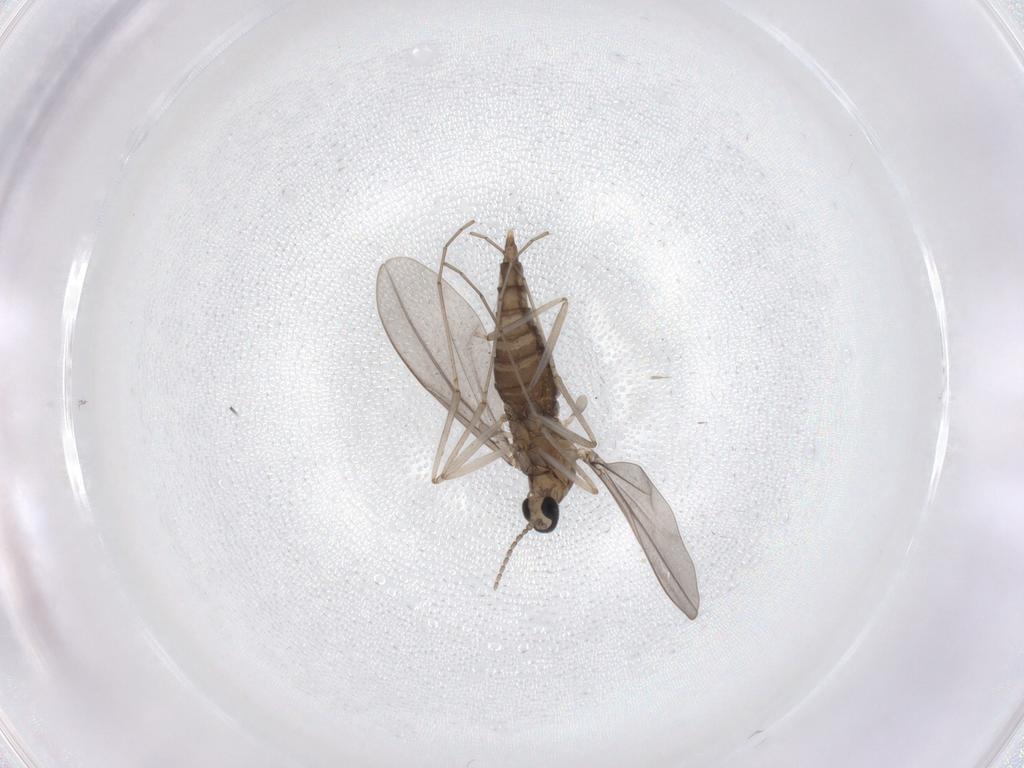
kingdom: Animalia
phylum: Arthropoda
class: Insecta
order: Diptera
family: Cecidomyiidae
